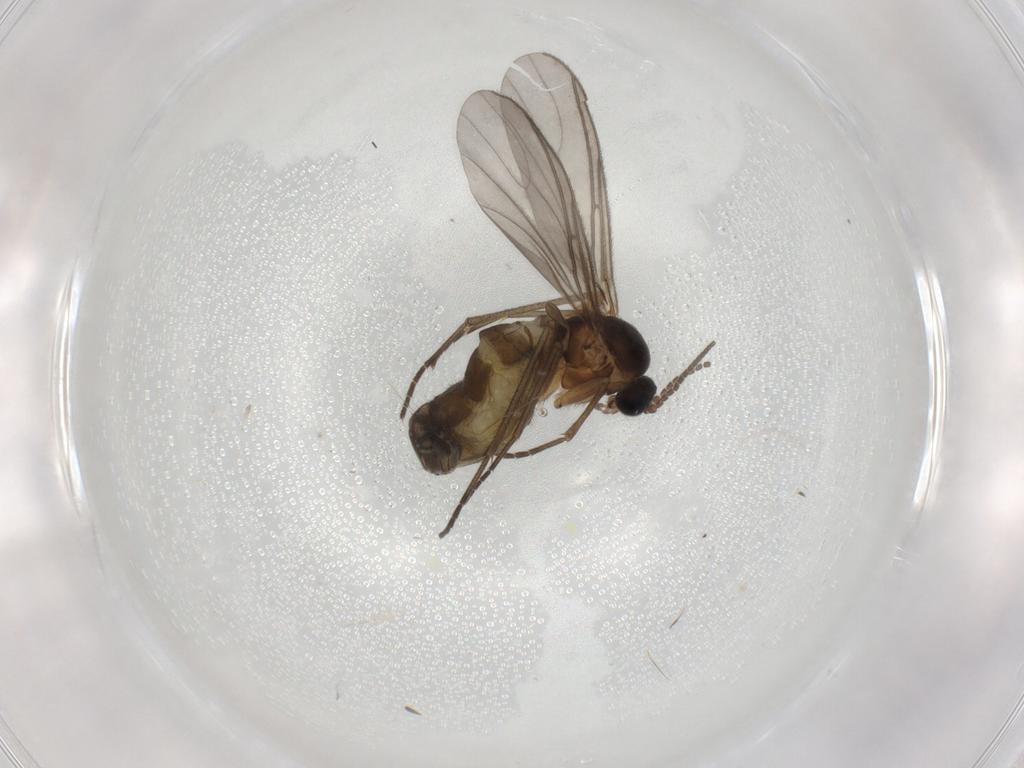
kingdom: Animalia
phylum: Arthropoda
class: Insecta
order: Diptera
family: Sciaridae
